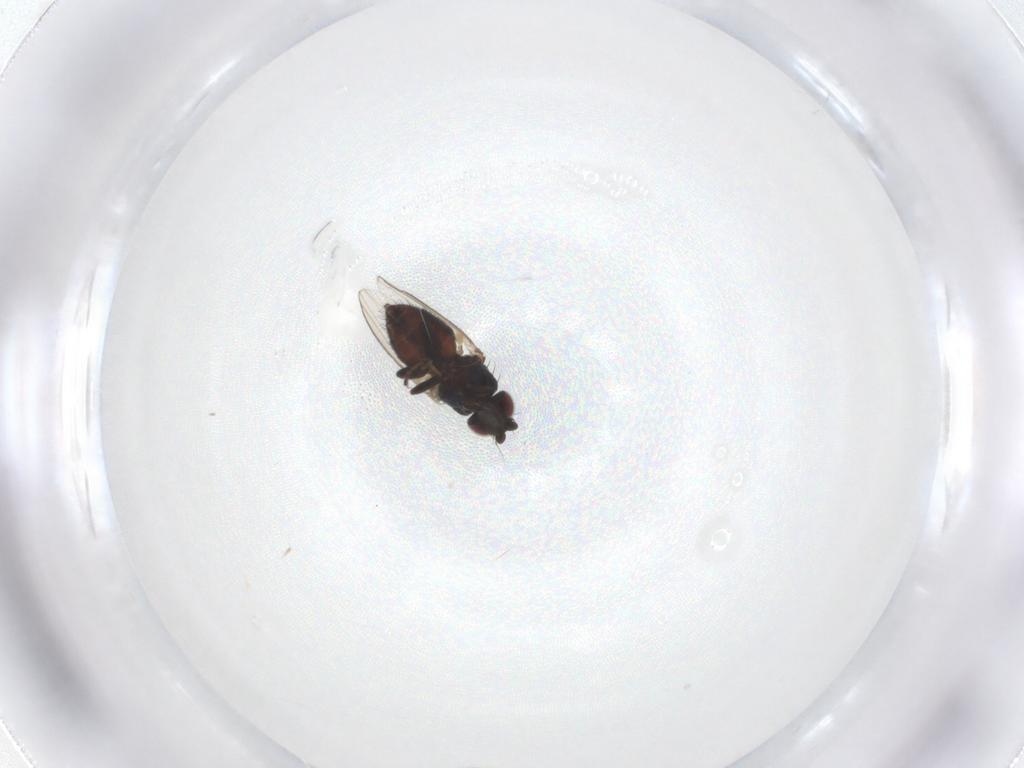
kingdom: Animalia
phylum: Arthropoda
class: Insecta
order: Diptera
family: Milichiidae
